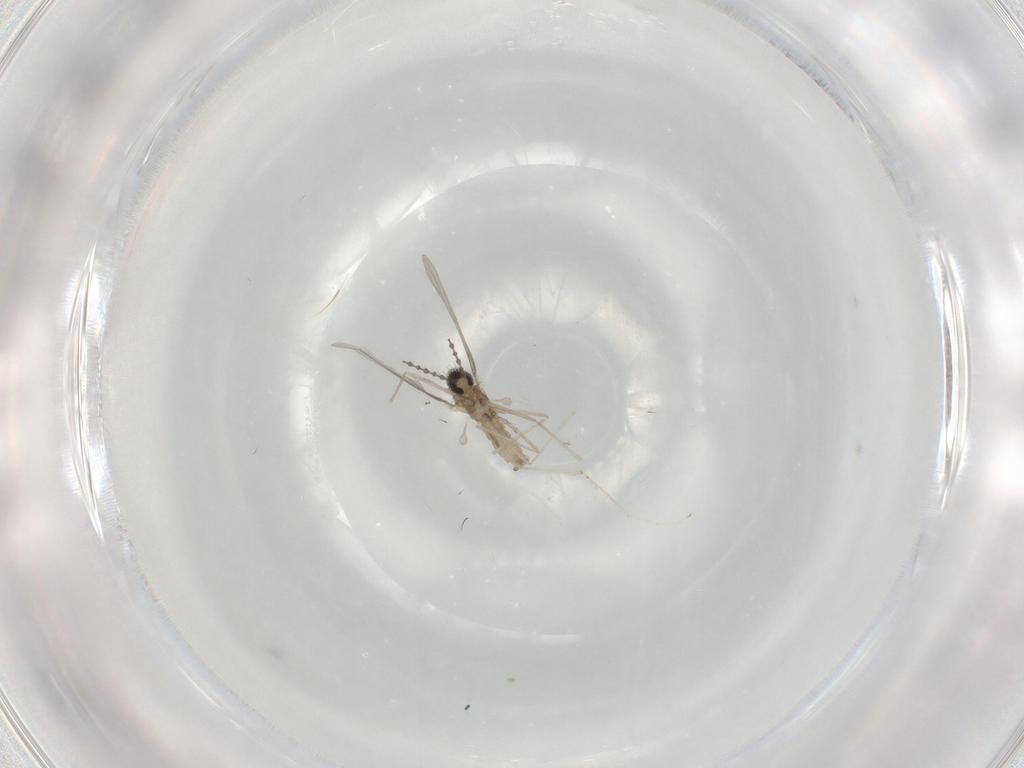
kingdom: Animalia
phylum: Arthropoda
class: Insecta
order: Diptera
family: Cecidomyiidae
